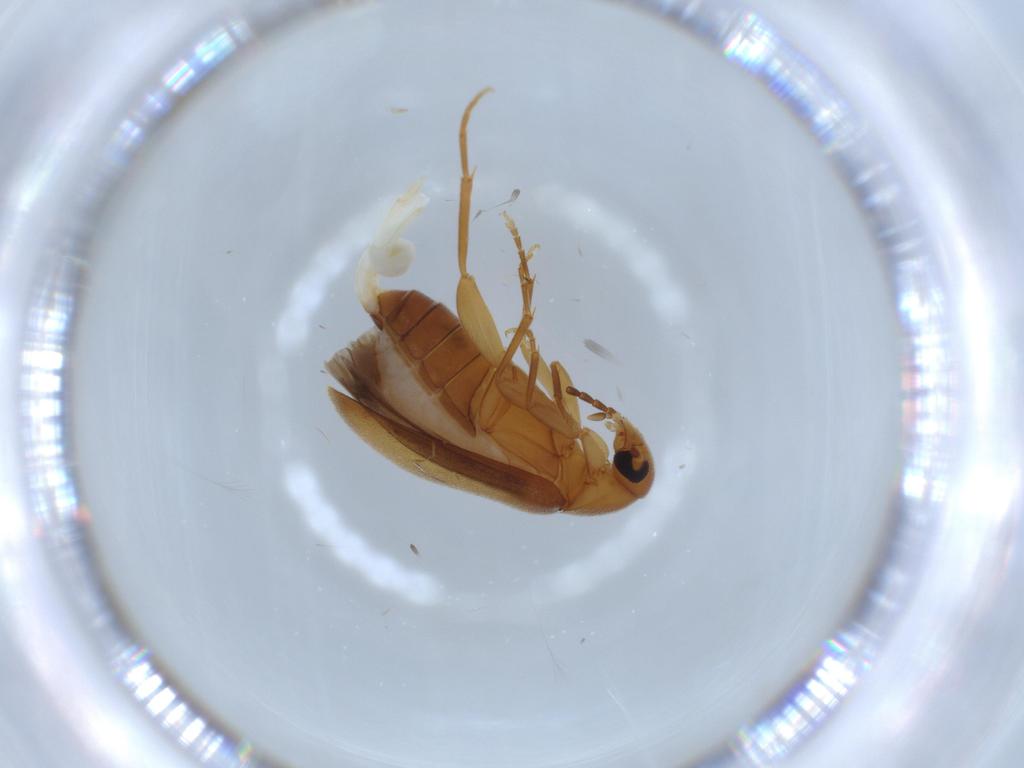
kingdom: Animalia
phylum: Arthropoda
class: Insecta
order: Coleoptera
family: Scraptiidae
